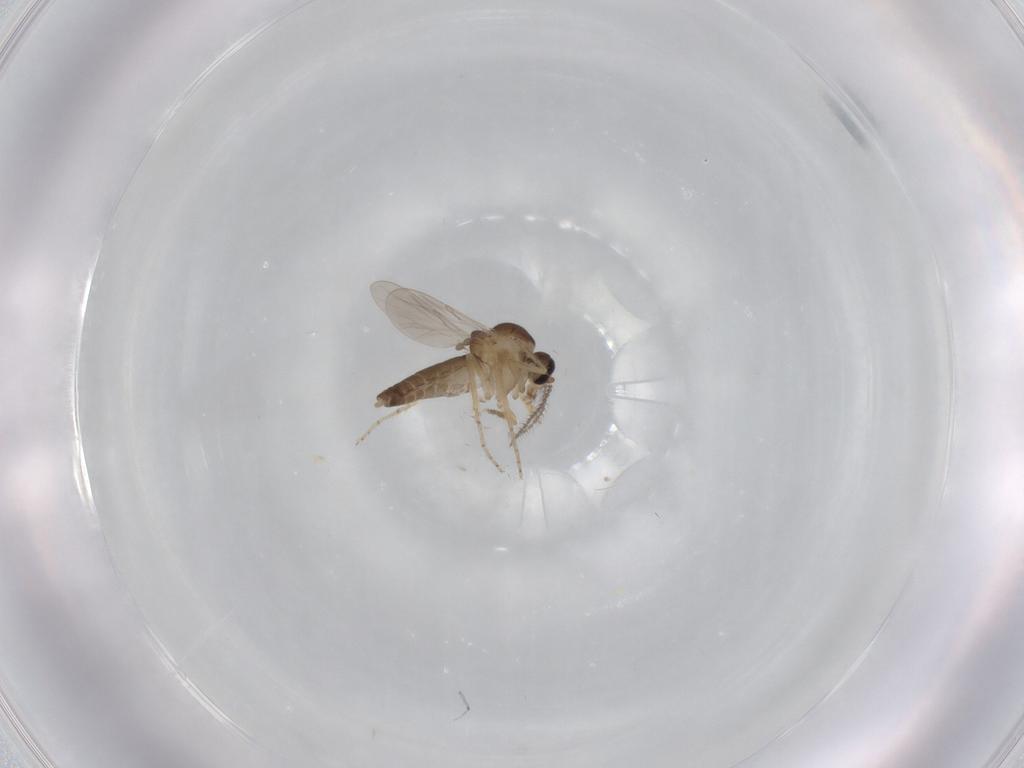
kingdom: Animalia
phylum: Arthropoda
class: Insecta
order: Diptera
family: Ceratopogonidae
